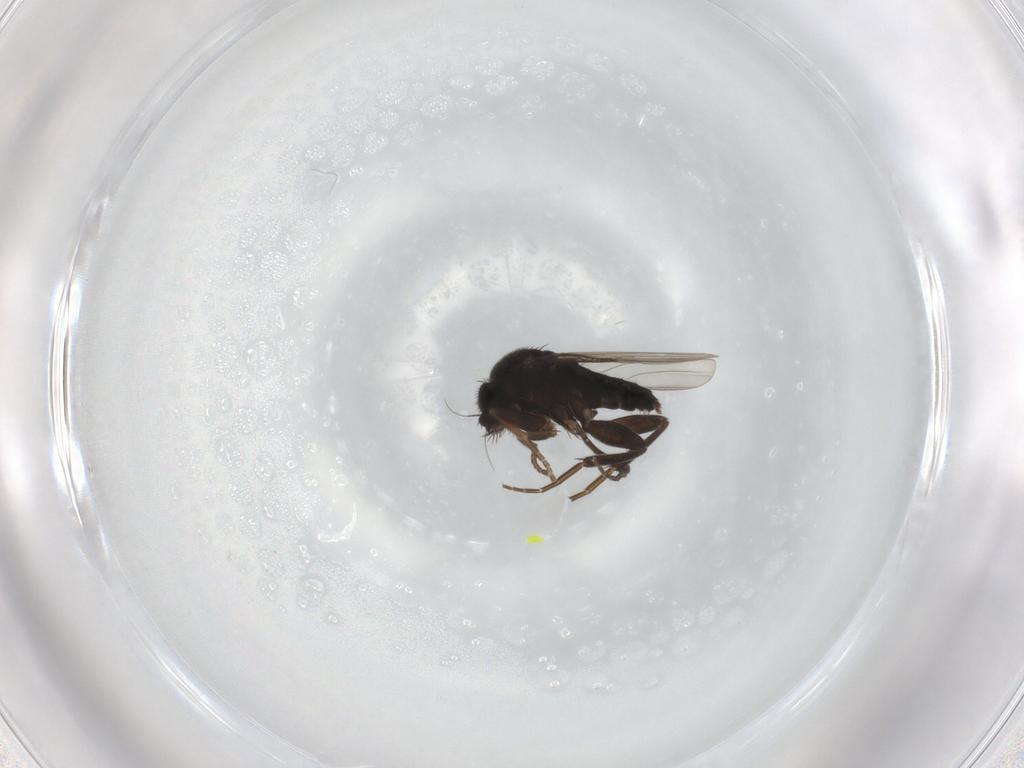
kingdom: Animalia
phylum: Arthropoda
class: Insecta
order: Diptera
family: Phoridae
